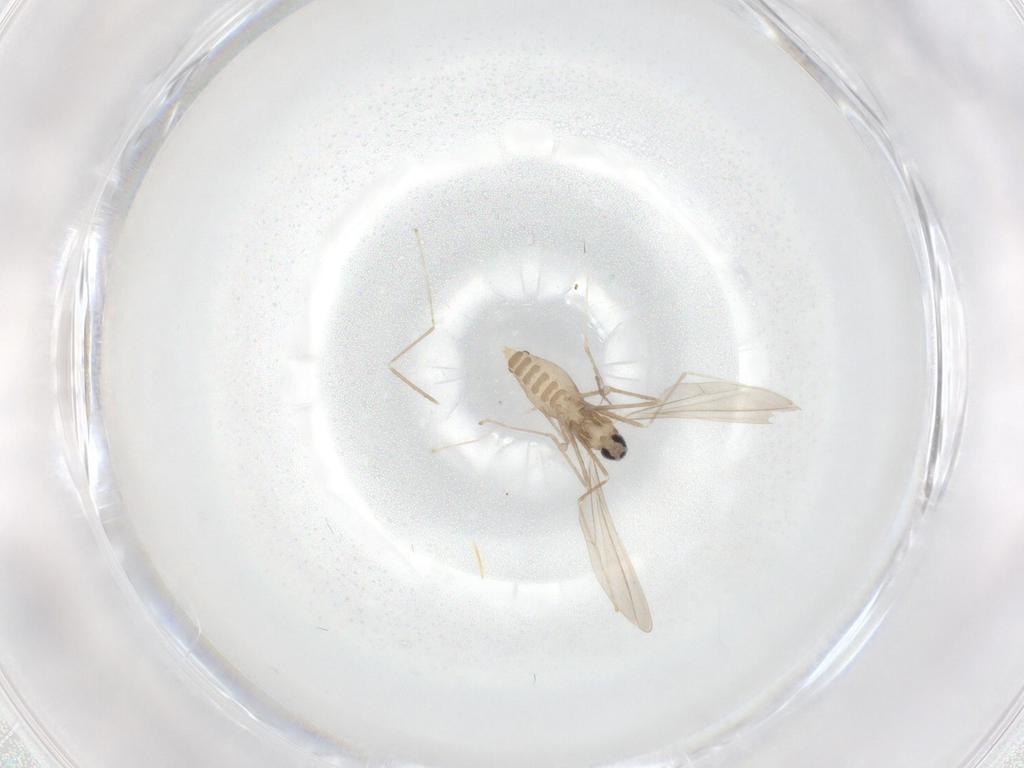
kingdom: Animalia
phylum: Arthropoda
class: Insecta
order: Diptera
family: Cecidomyiidae
